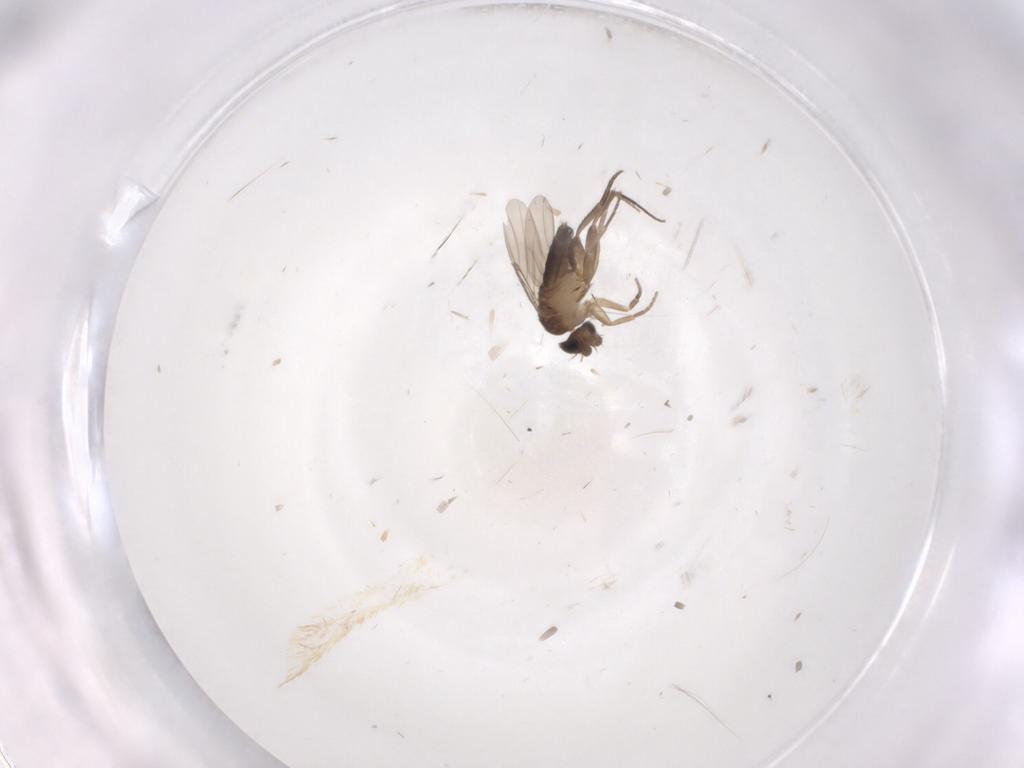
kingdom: Animalia
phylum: Arthropoda
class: Insecta
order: Diptera
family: Phoridae
